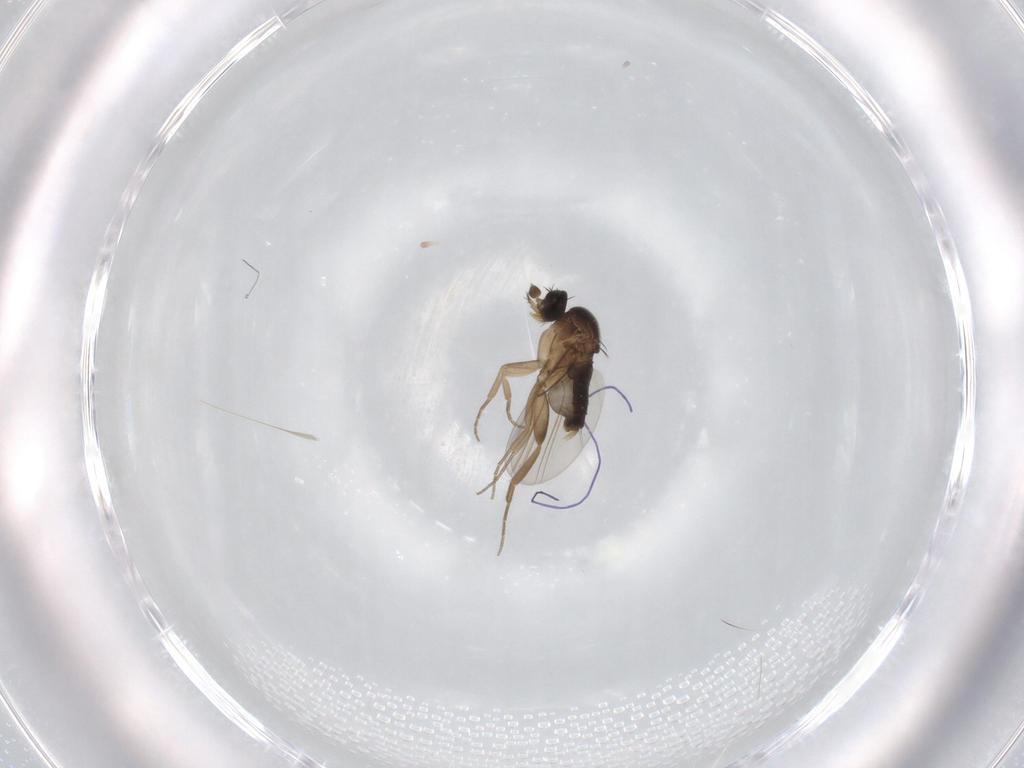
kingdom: Animalia
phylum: Arthropoda
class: Insecta
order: Diptera
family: Phoridae
